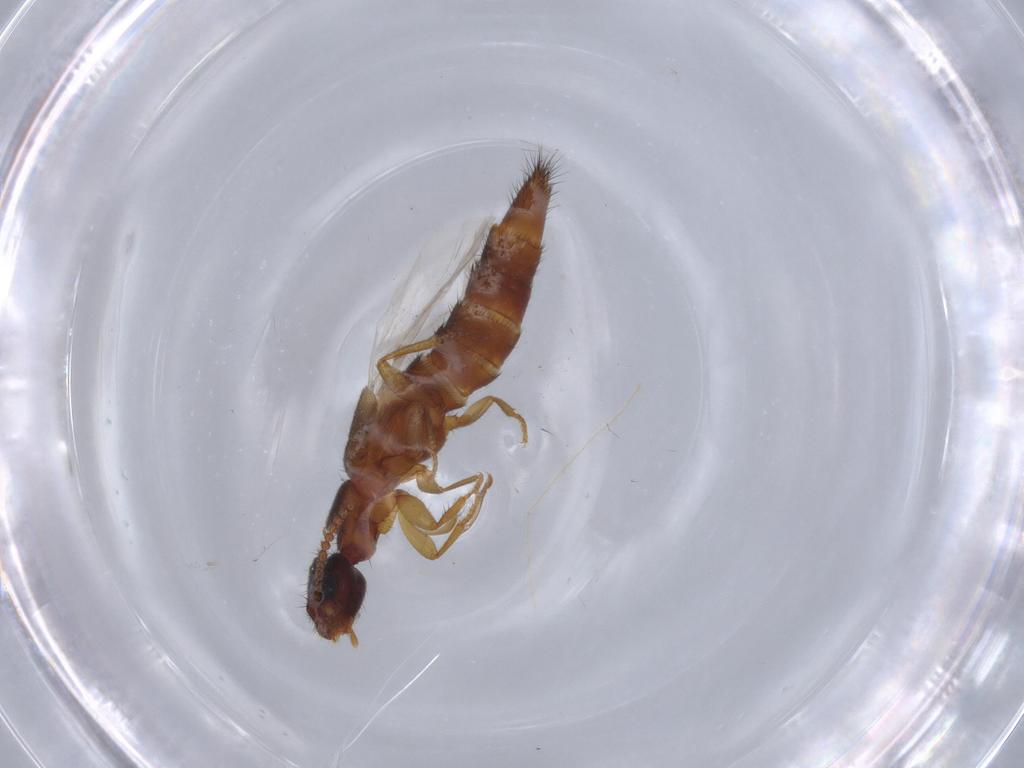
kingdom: Animalia
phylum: Arthropoda
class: Insecta
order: Coleoptera
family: Staphylinidae
